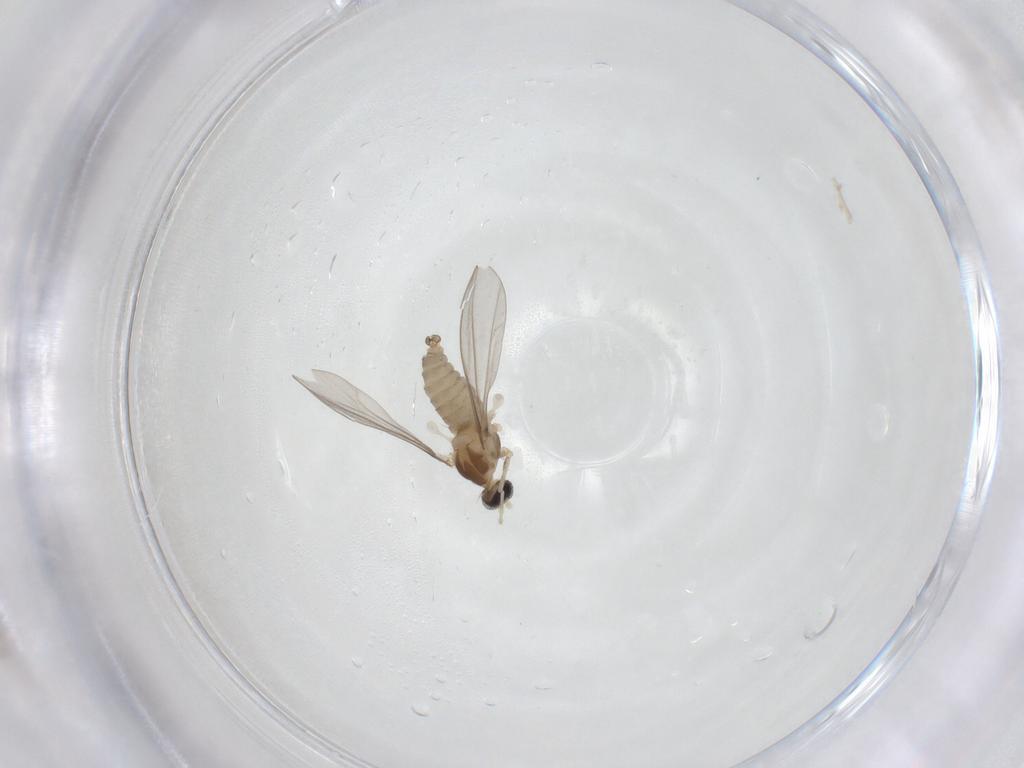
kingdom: Animalia
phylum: Arthropoda
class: Insecta
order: Diptera
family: Cecidomyiidae
